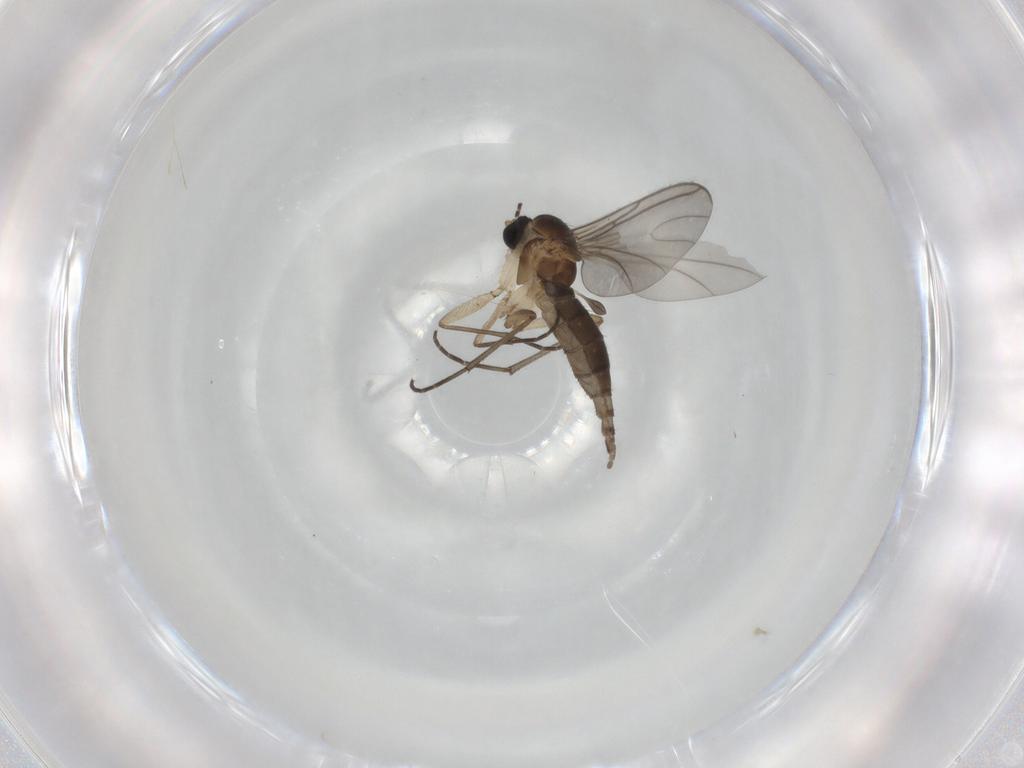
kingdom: Animalia
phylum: Arthropoda
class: Insecta
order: Diptera
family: Sciaridae
